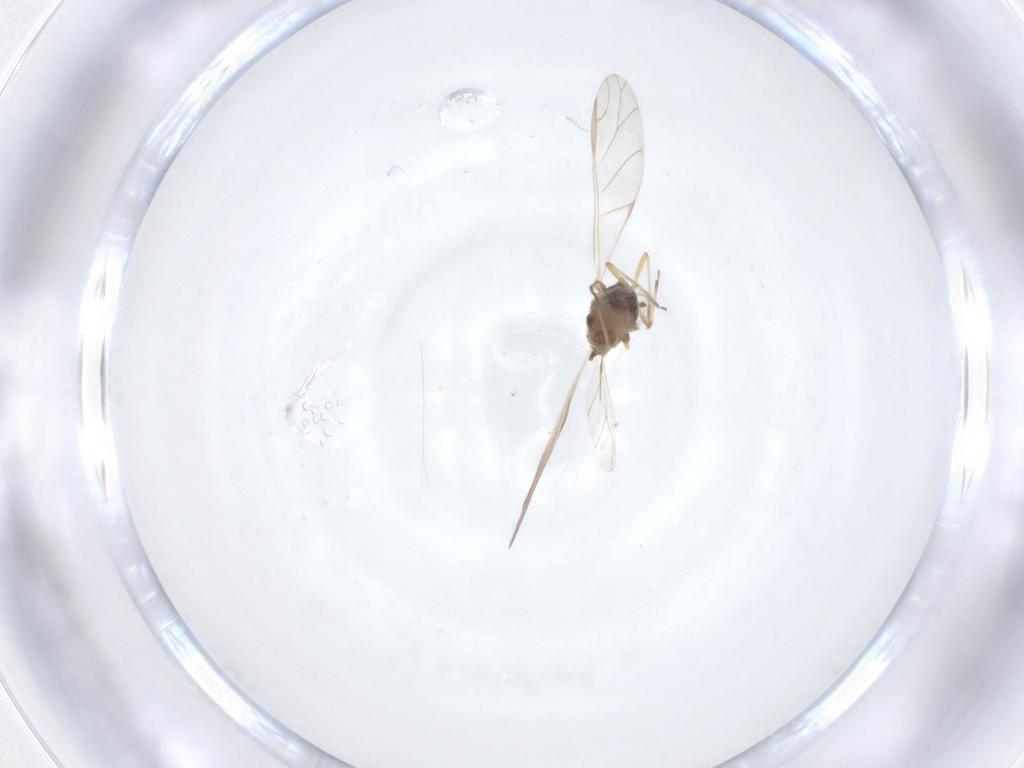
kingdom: Animalia
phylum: Arthropoda
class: Insecta
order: Hemiptera
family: Aphididae
